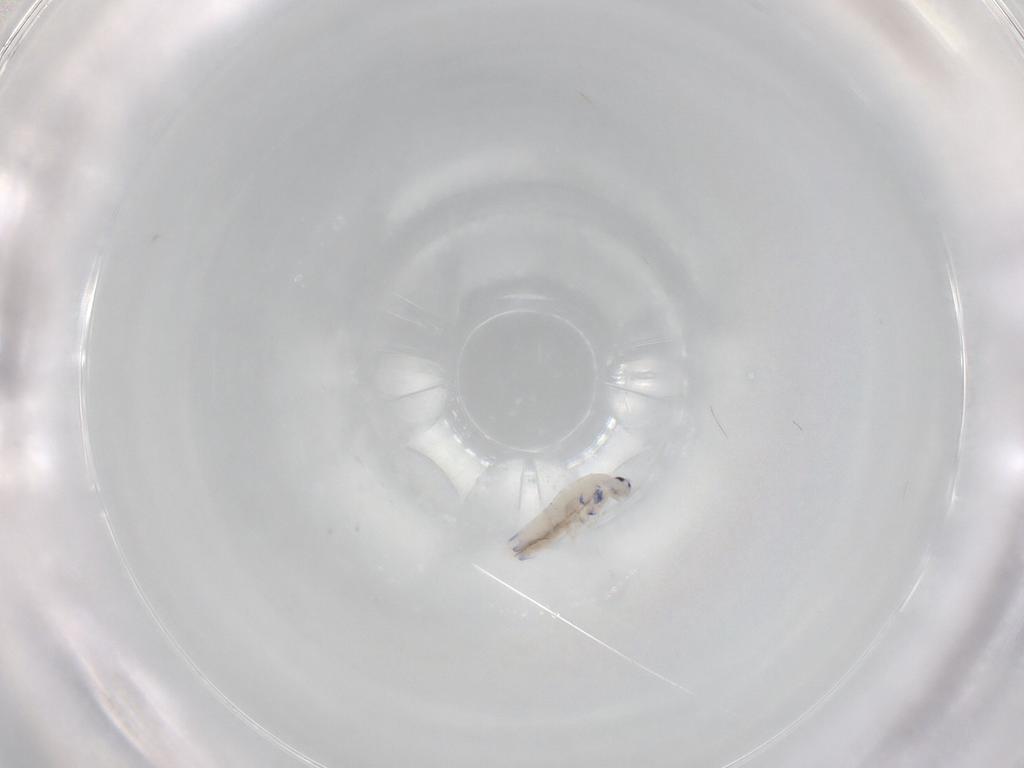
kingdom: Animalia
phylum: Arthropoda
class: Collembola
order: Entomobryomorpha
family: Entomobryidae
